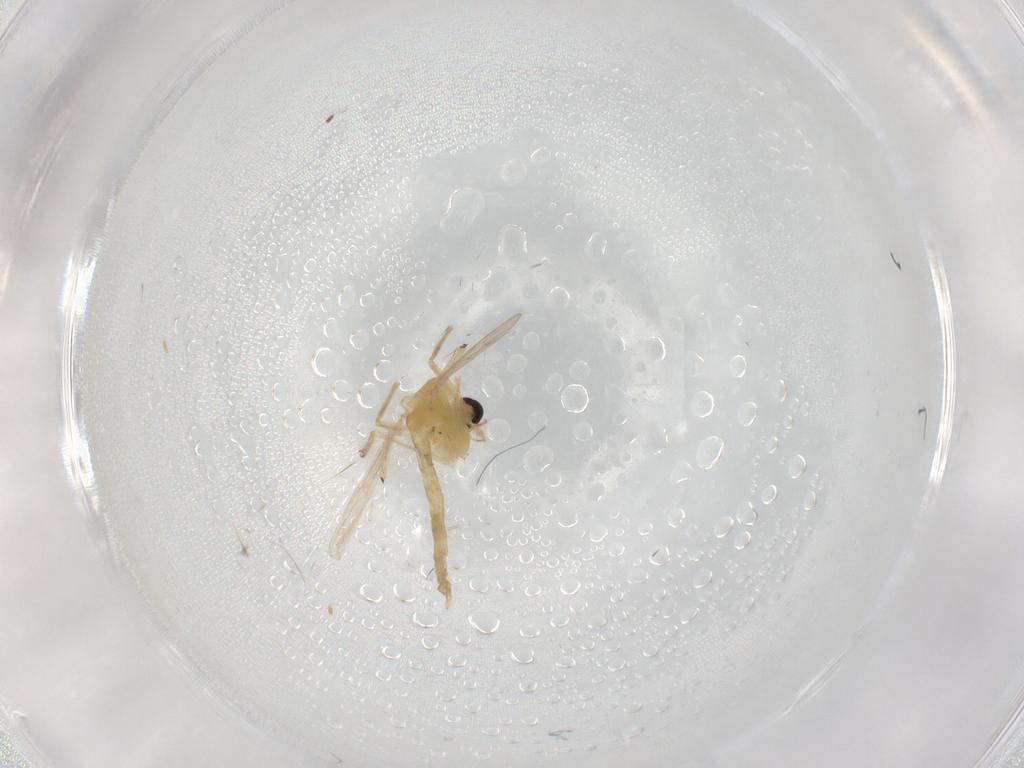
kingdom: Animalia
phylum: Arthropoda
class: Insecta
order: Diptera
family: Chironomidae
